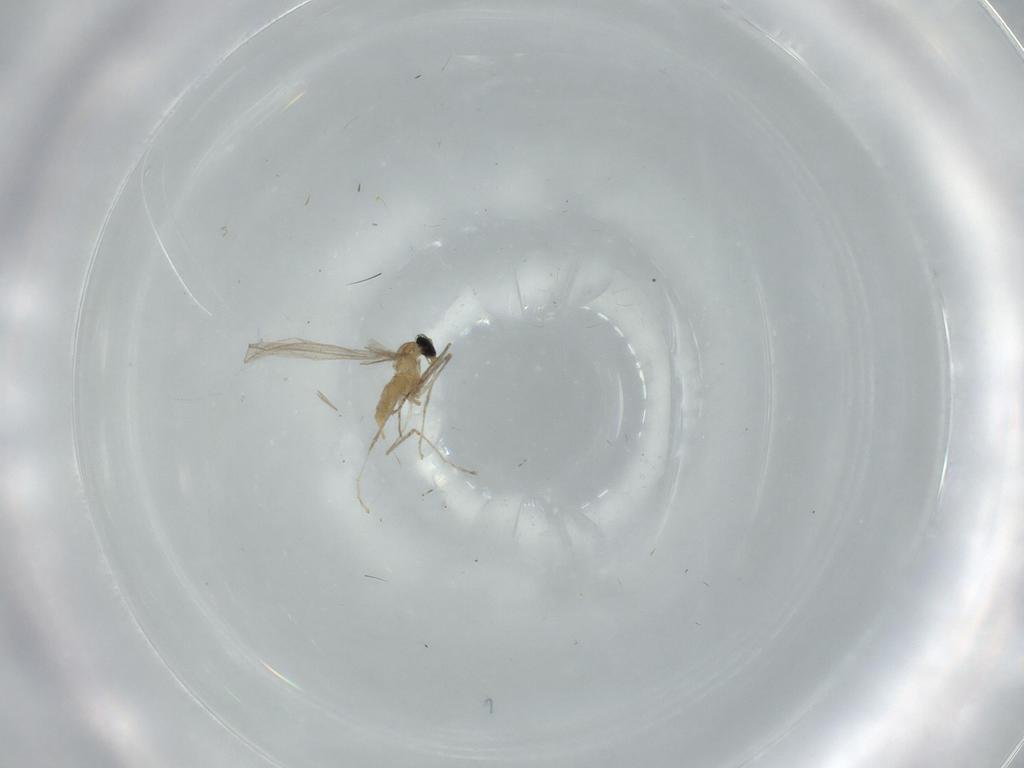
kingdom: Animalia
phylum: Arthropoda
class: Insecta
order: Diptera
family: Cecidomyiidae
